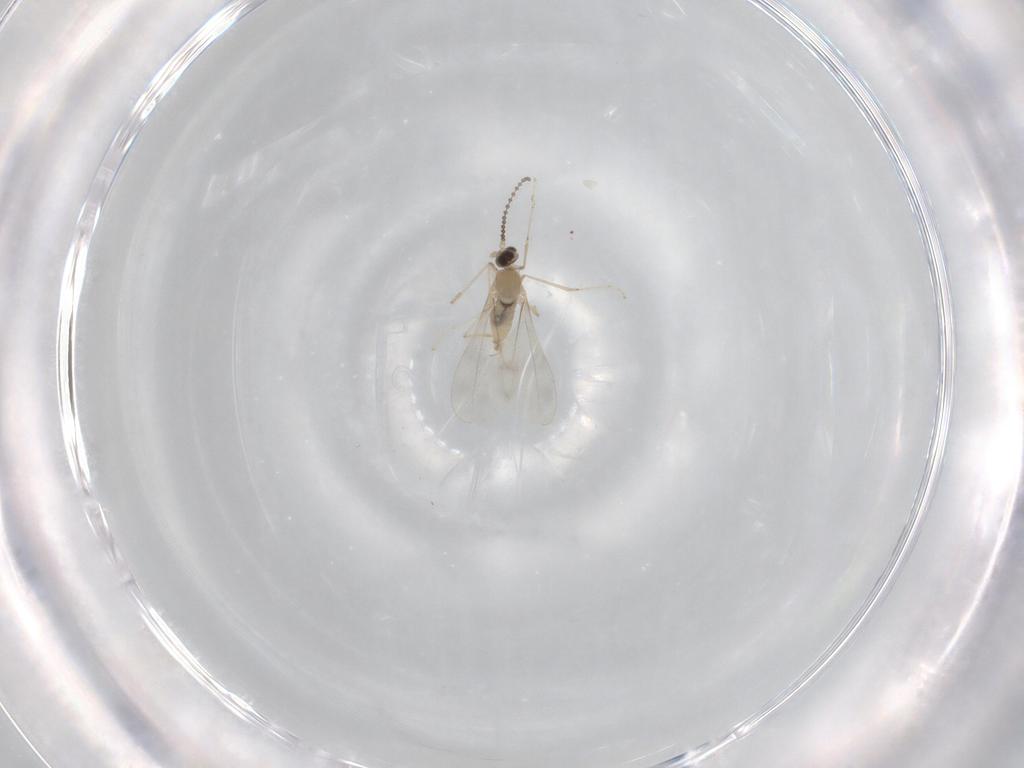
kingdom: Animalia
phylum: Arthropoda
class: Insecta
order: Diptera
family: Cecidomyiidae
